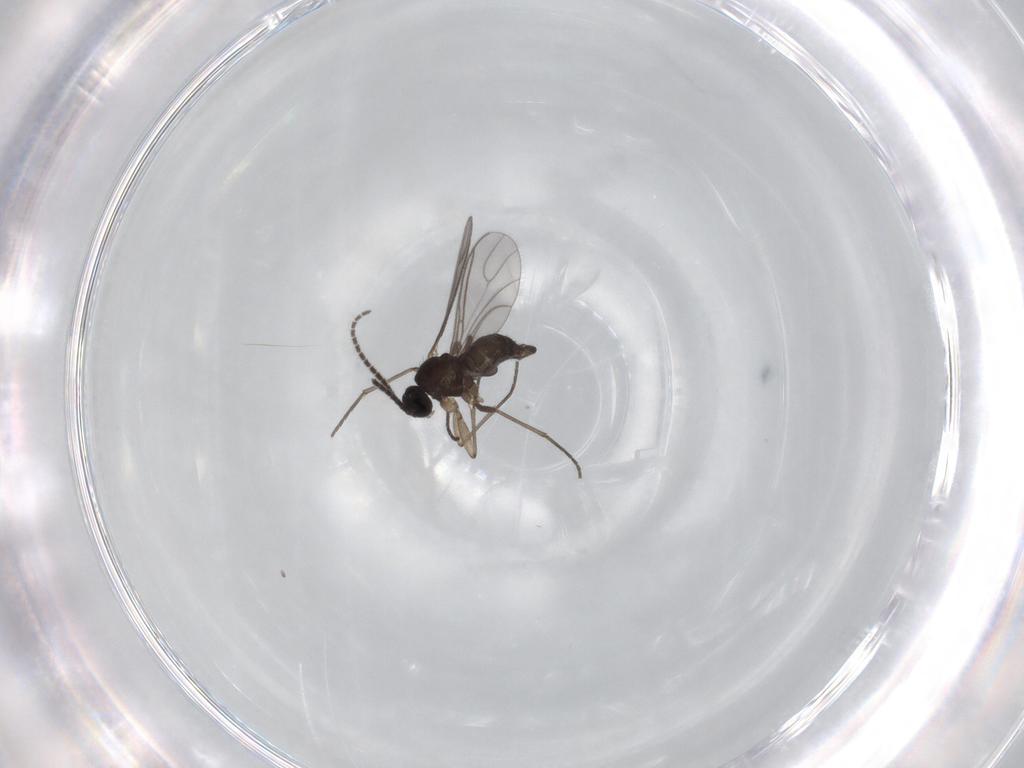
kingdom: Animalia
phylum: Arthropoda
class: Insecta
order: Diptera
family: Sciaridae
